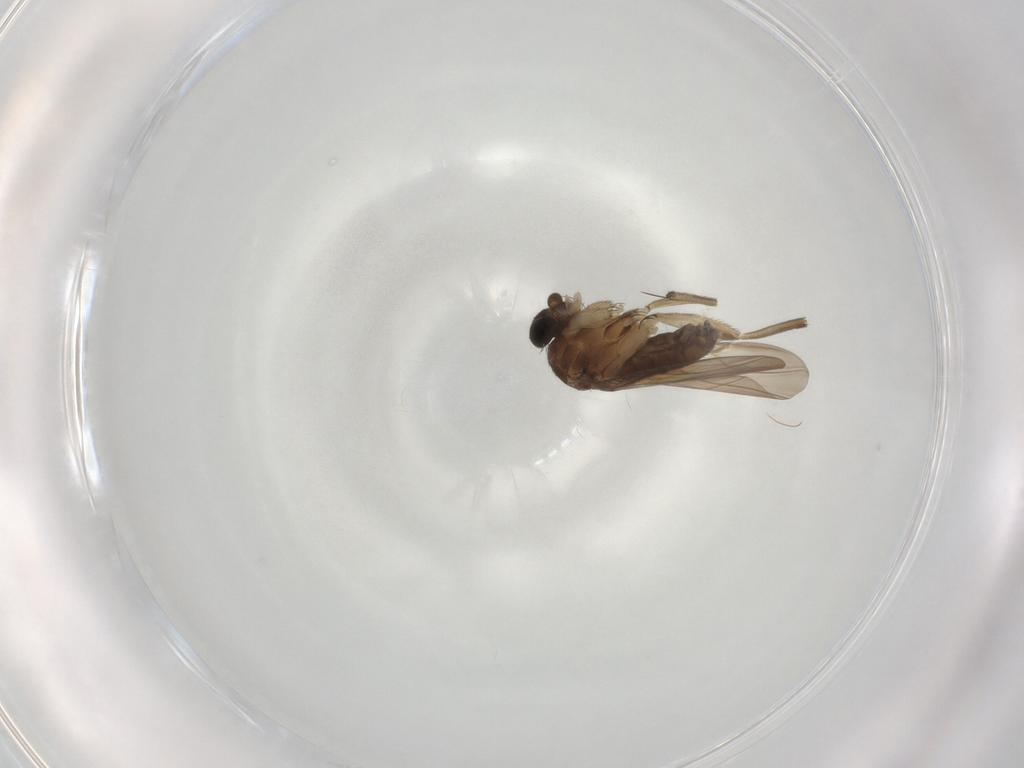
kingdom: Animalia
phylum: Arthropoda
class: Insecta
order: Diptera
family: Phoridae
